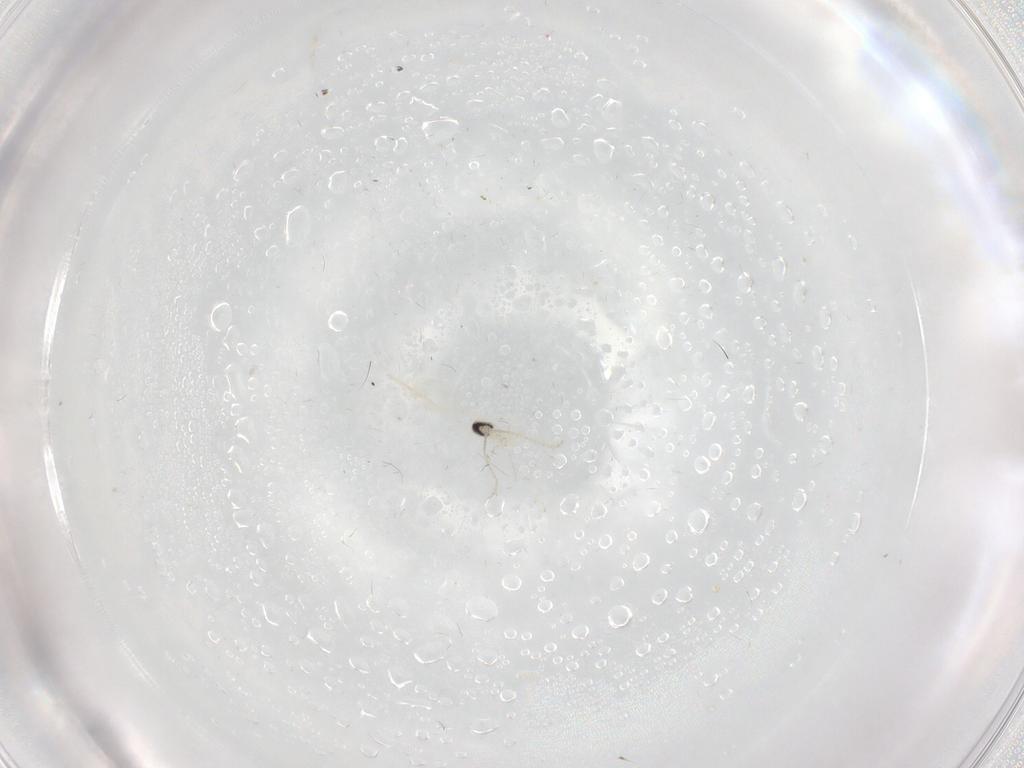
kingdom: Animalia
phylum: Arthropoda
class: Insecta
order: Diptera
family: Cecidomyiidae
